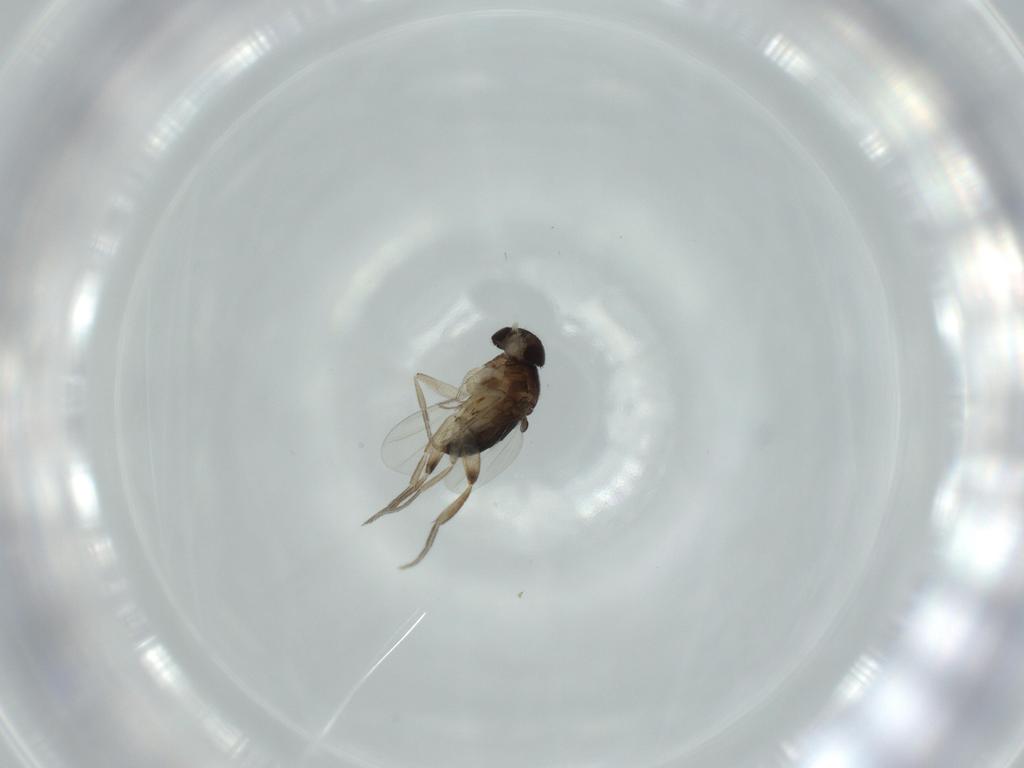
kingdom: Animalia
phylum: Arthropoda
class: Insecta
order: Diptera
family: Phoridae
